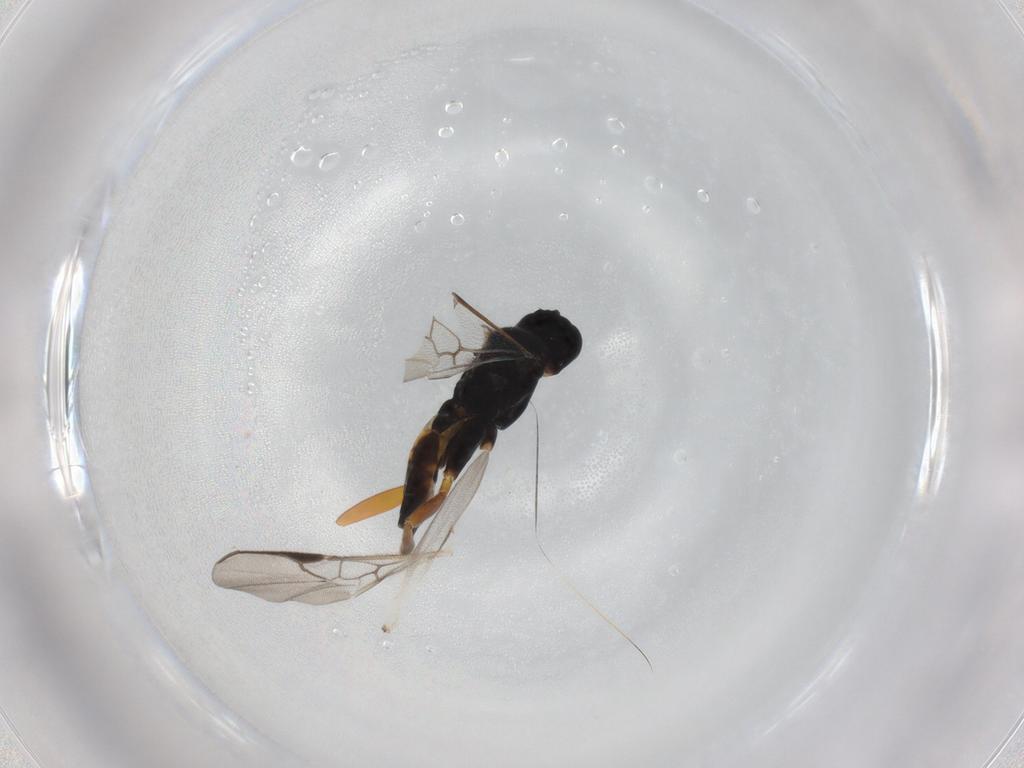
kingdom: Animalia
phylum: Arthropoda
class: Insecta
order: Hymenoptera
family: Braconidae
